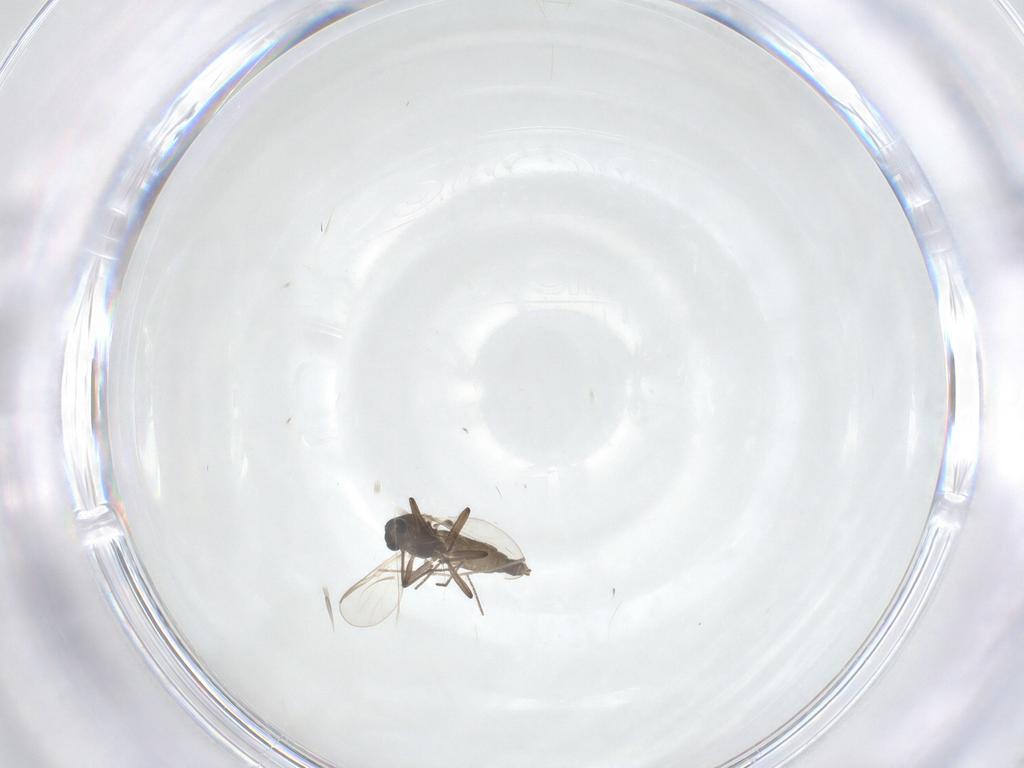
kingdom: Animalia
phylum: Arthropoda
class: Insecta
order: Diptera
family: Chironomidae
